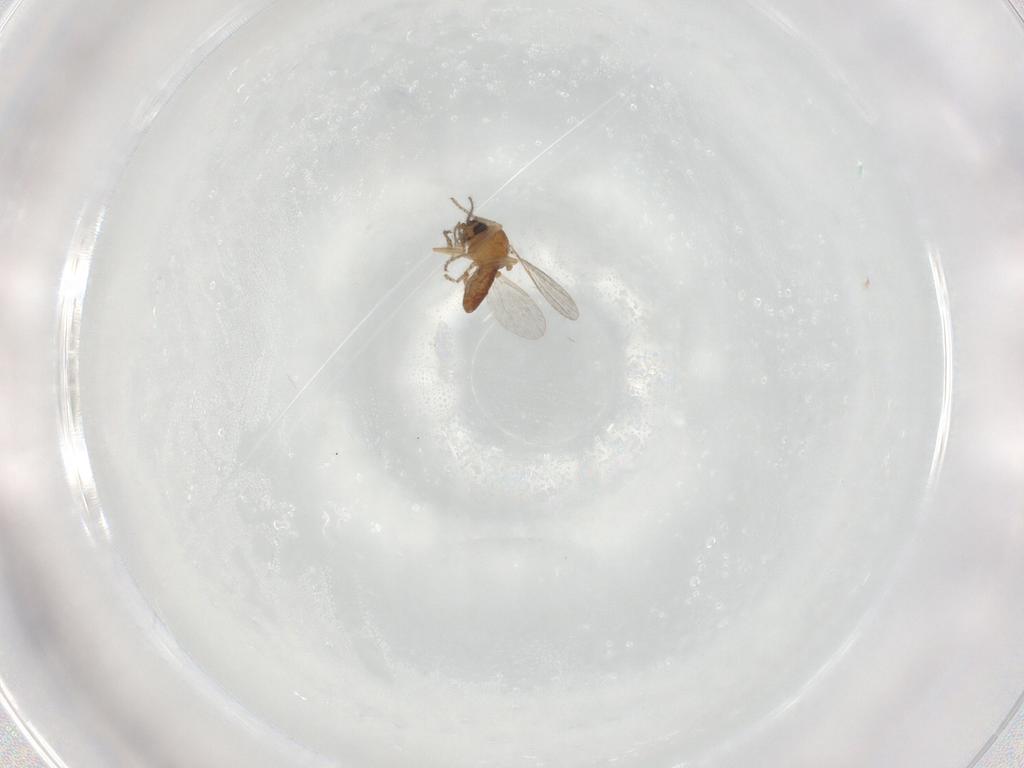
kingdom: Animalia
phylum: Arthropoda
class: Insecta
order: Diptera
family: Ceratopogonidae
